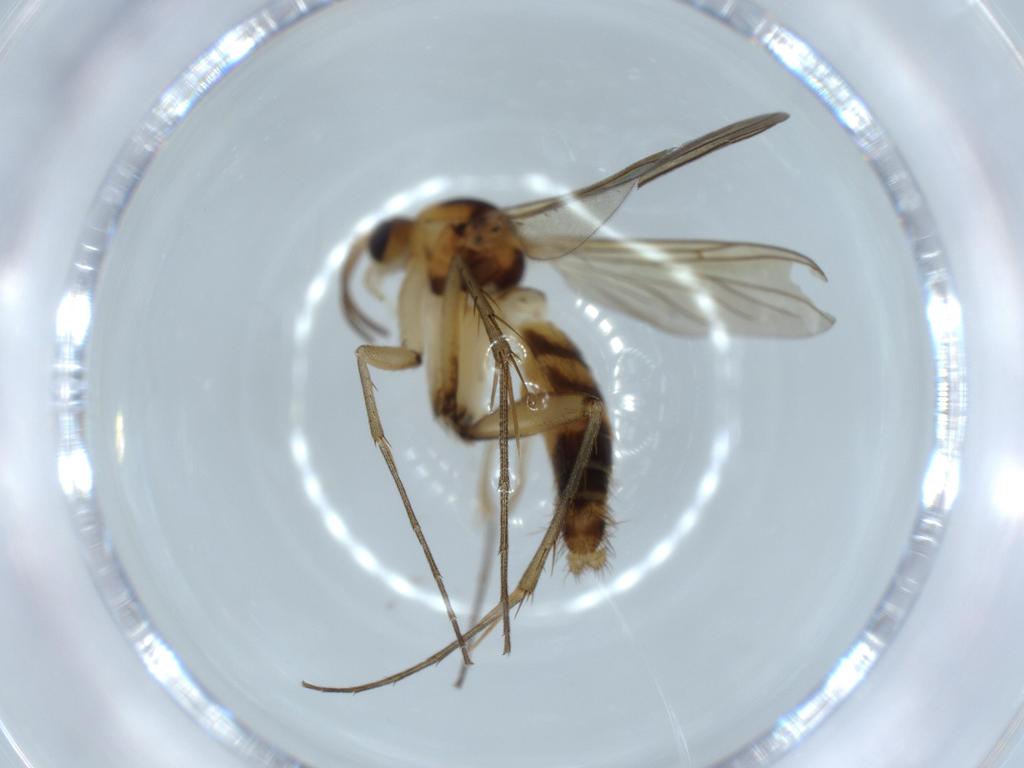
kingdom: Animalia
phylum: Arthropoda
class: Insecta
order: Diptera
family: Mycetophilidae
